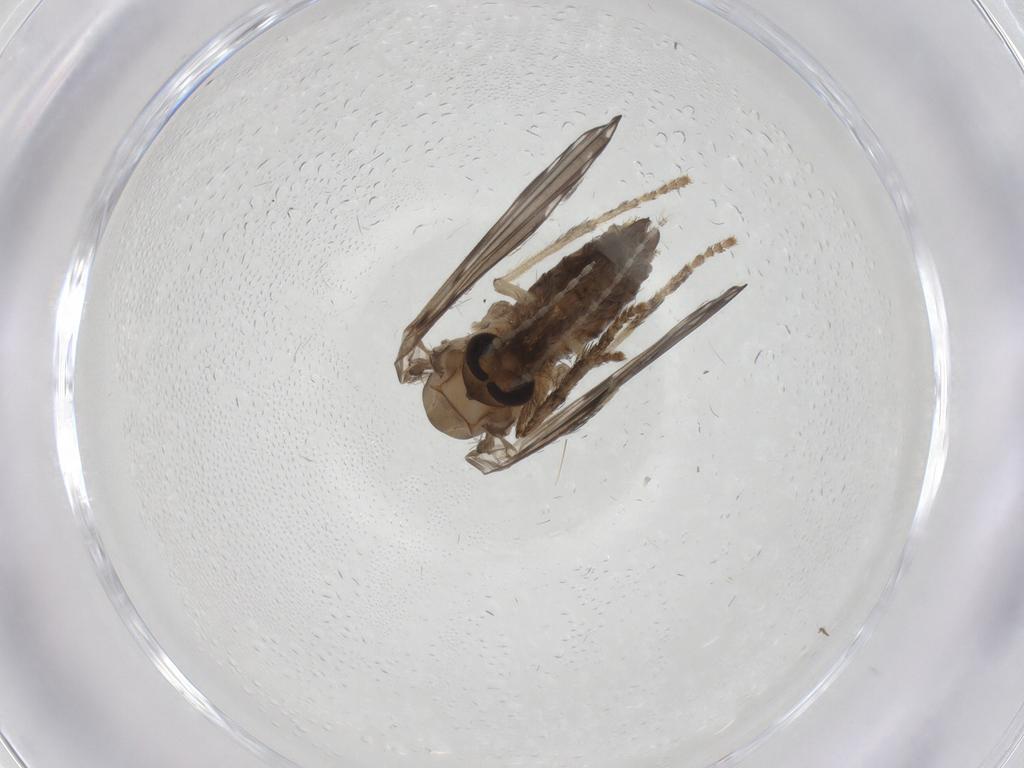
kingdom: Animalia
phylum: Arthropoda
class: Insecta
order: Diptera
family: Psychodidae
